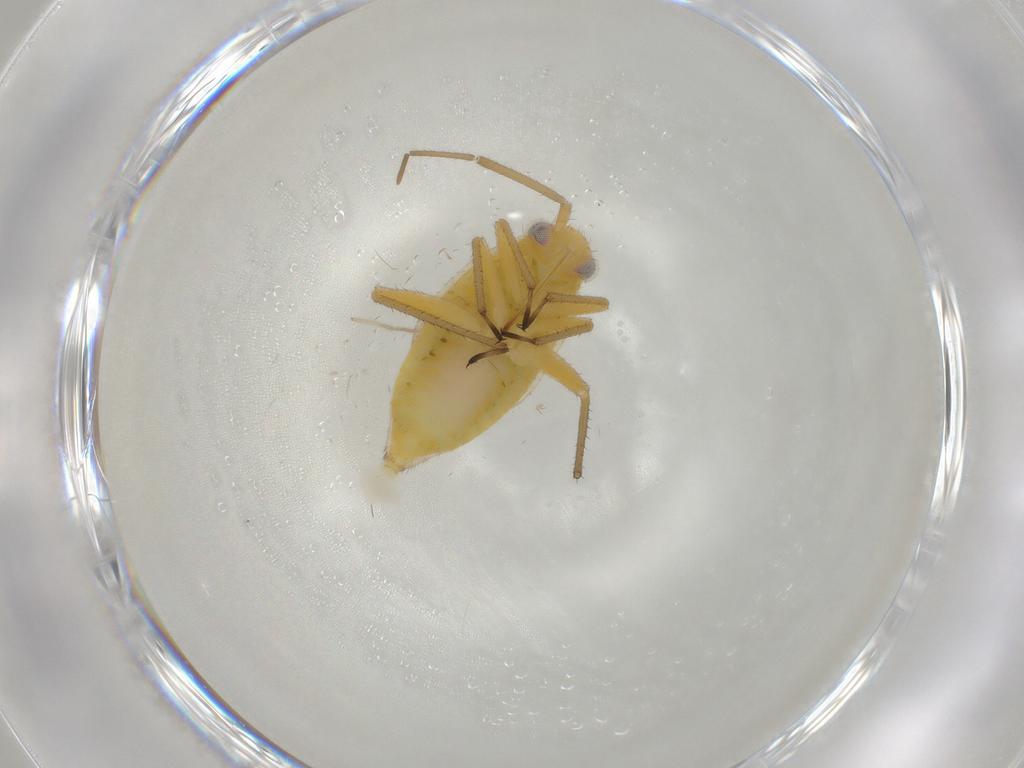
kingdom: Animalia
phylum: Arthropoda
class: Insecta
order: Hemiptera
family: Miridae
